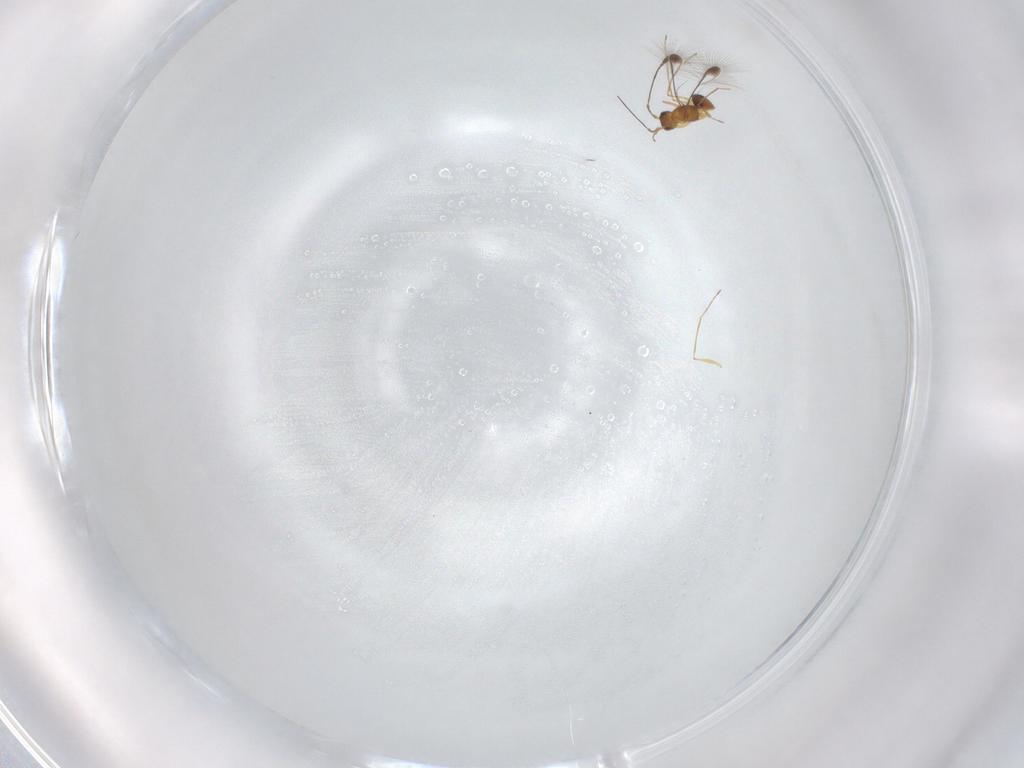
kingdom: Animalia
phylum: Arthropoda
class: Insecta
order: Hymenoptera
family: Mymaridae
